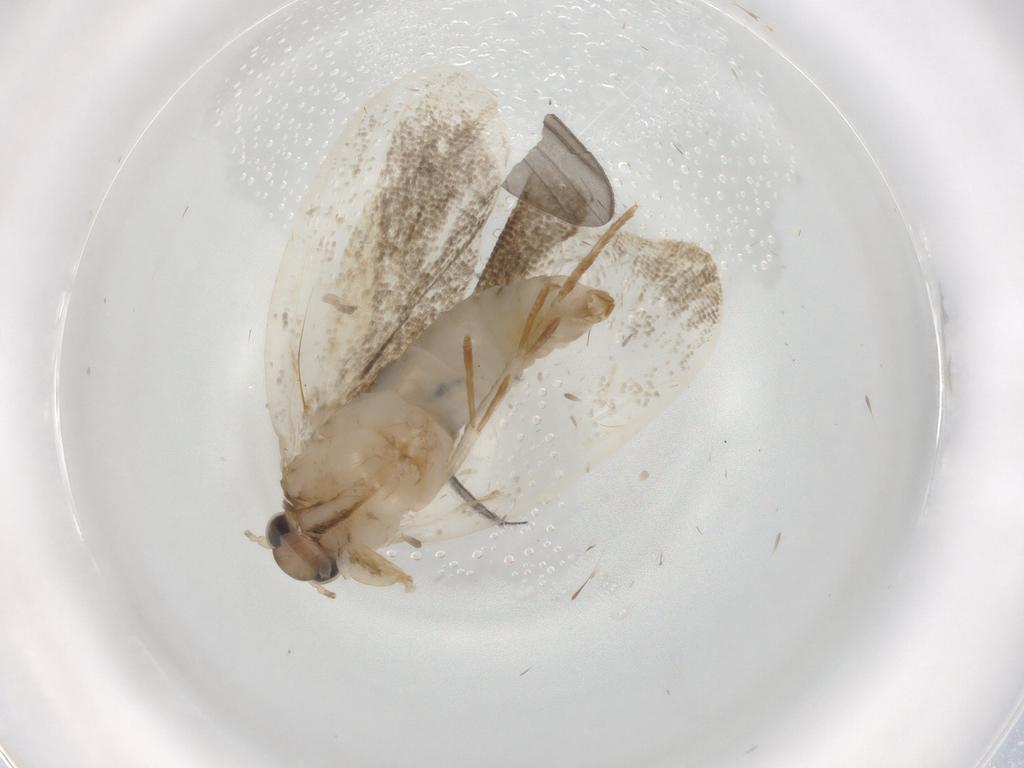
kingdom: Animalia
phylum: Arthropoda
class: Insecta
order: Lepidoptera
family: Psychidae
